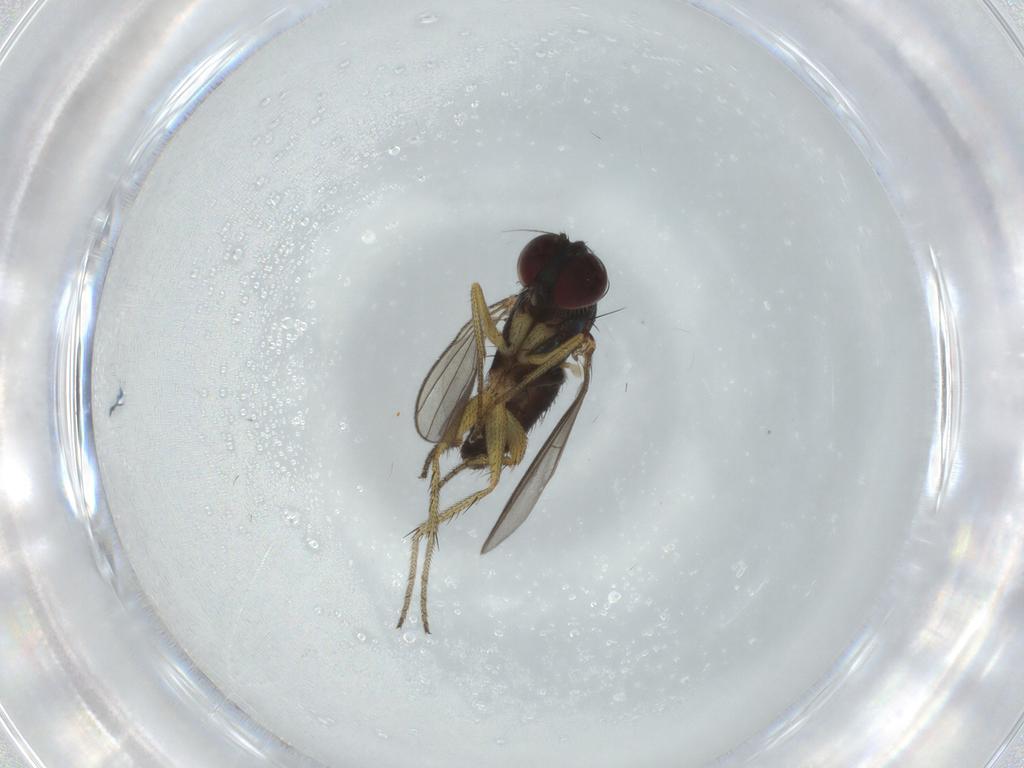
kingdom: Animalia
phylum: Arthropoda
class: Insecta
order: Diptera
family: Dolichopodidae
